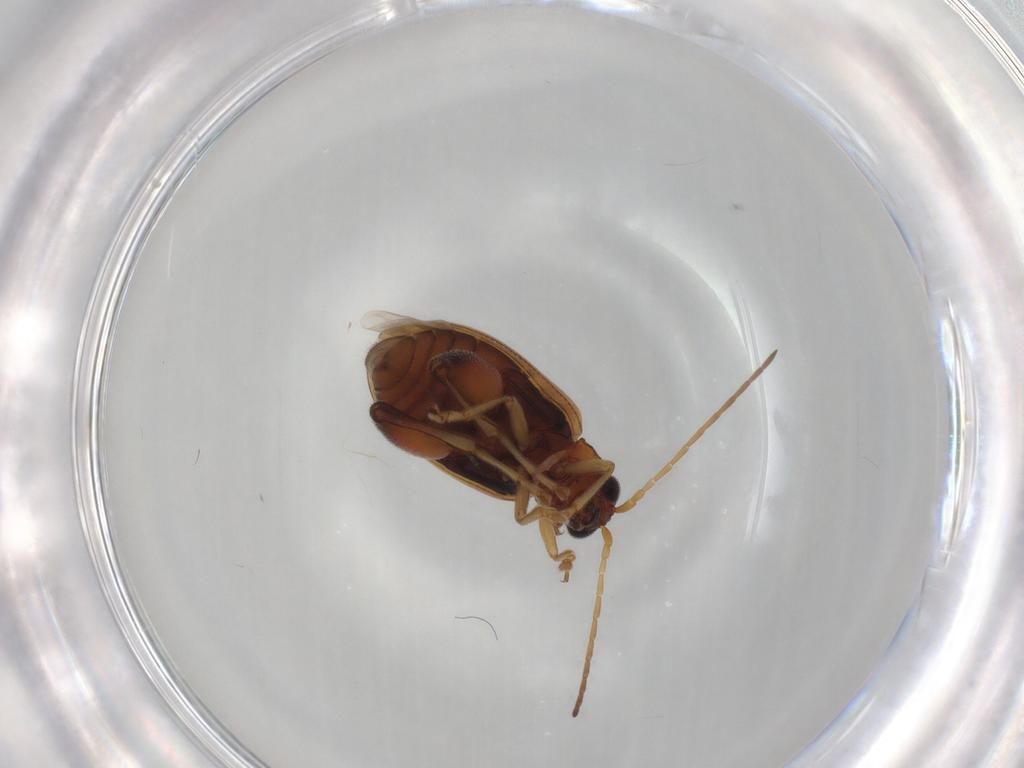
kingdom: Animalia
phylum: Arthropoda
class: Insecta
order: Coleoptera
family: Chrysomelidae
